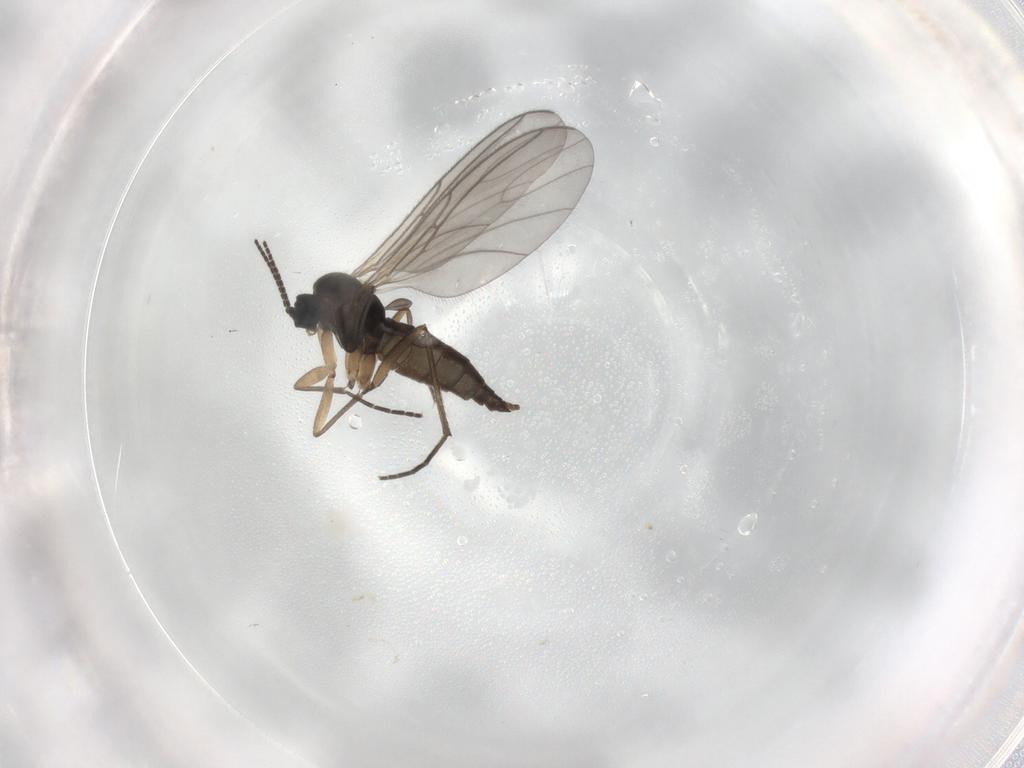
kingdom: Animalia
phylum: Arthropoda
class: Insecta
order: Diptera
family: Sciaridae
